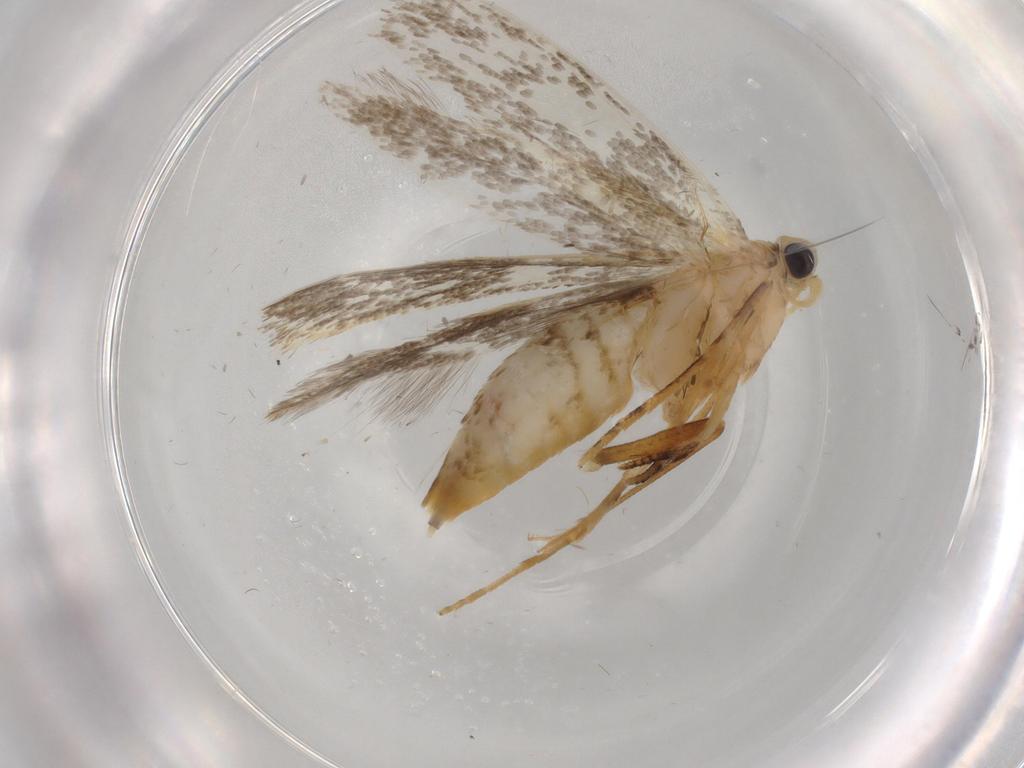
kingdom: Animalia
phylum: Arthropoda
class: Insecta
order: Lepidoptera
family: Tineidae
